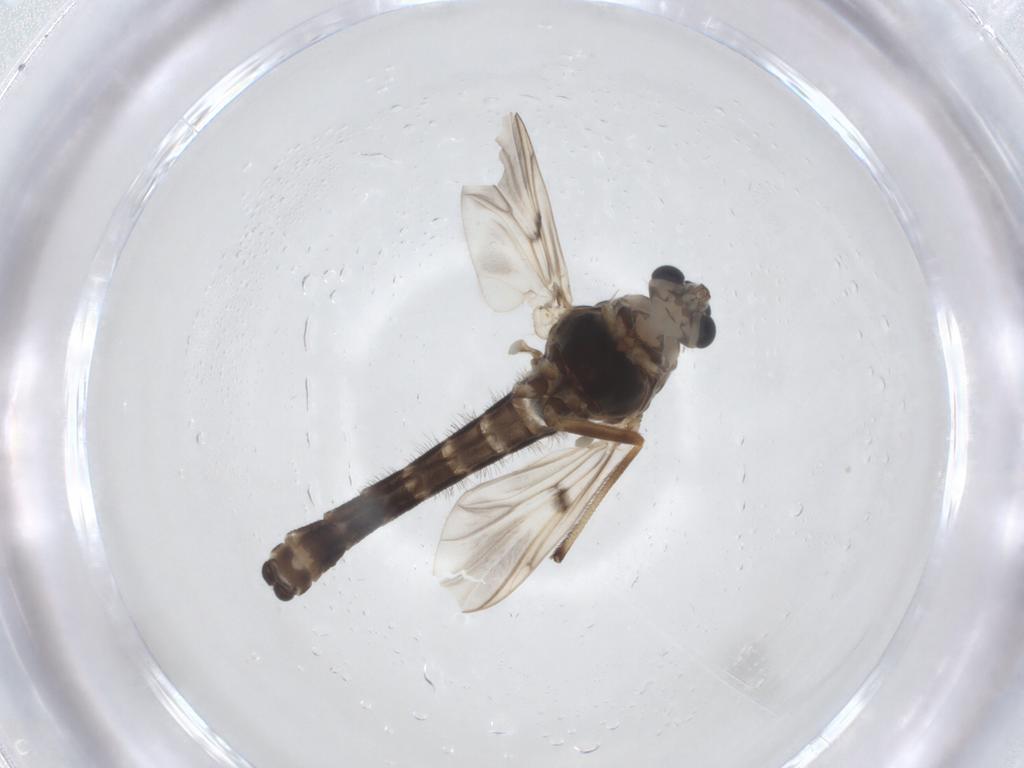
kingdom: Animalia
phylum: Arthropoda
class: Insecta
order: Diptera
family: Chironomidae
